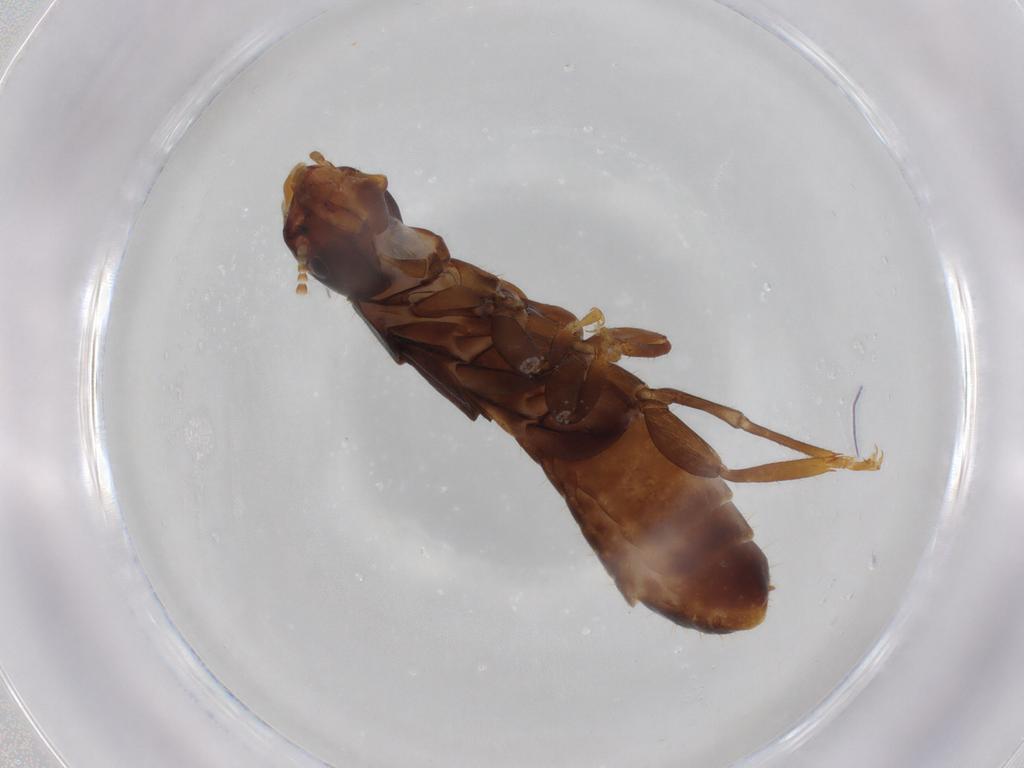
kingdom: Animalia
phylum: Arthropoda
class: Insecta
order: Blattodea
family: Kalotermitidae
